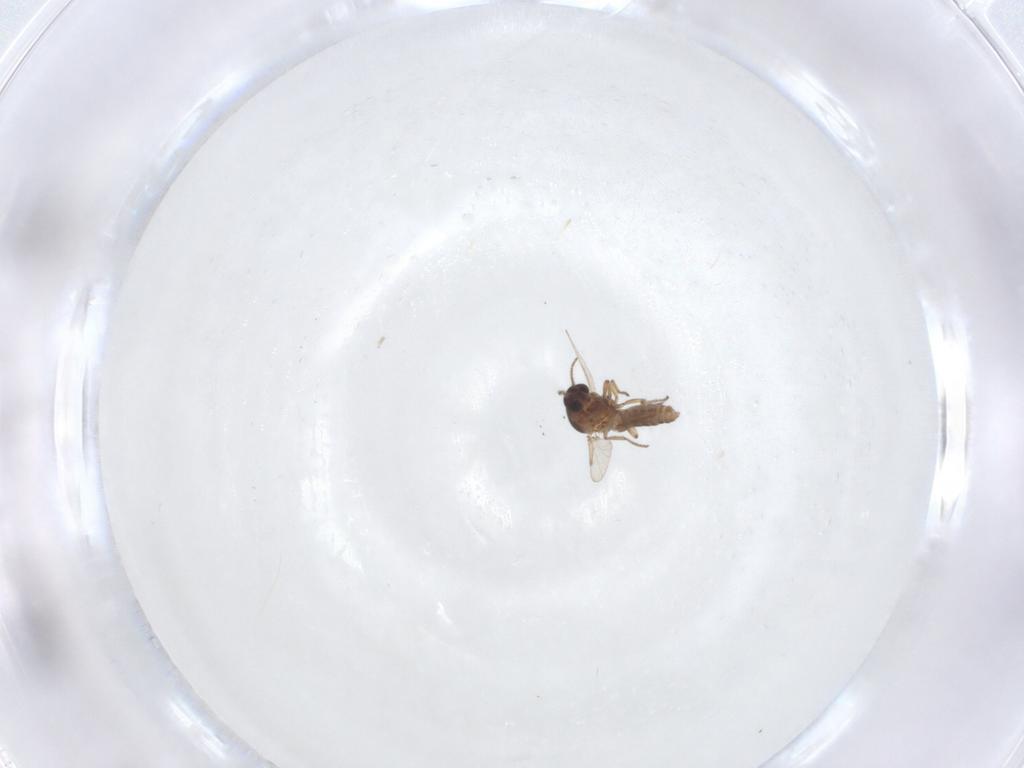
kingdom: Animalia
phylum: Arthropoda
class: Insecta
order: Diptera
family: Ceratopogonidae
